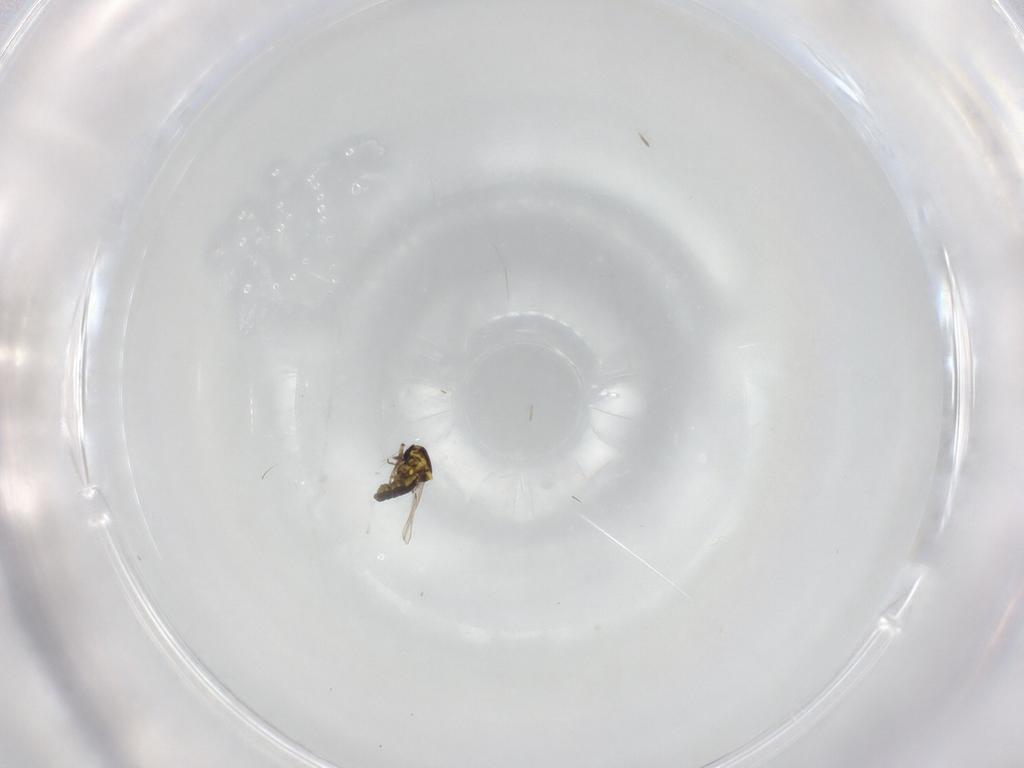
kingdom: Animalia
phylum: Arthropoda
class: Insecta
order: Diptera
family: Ceratopogonidae
